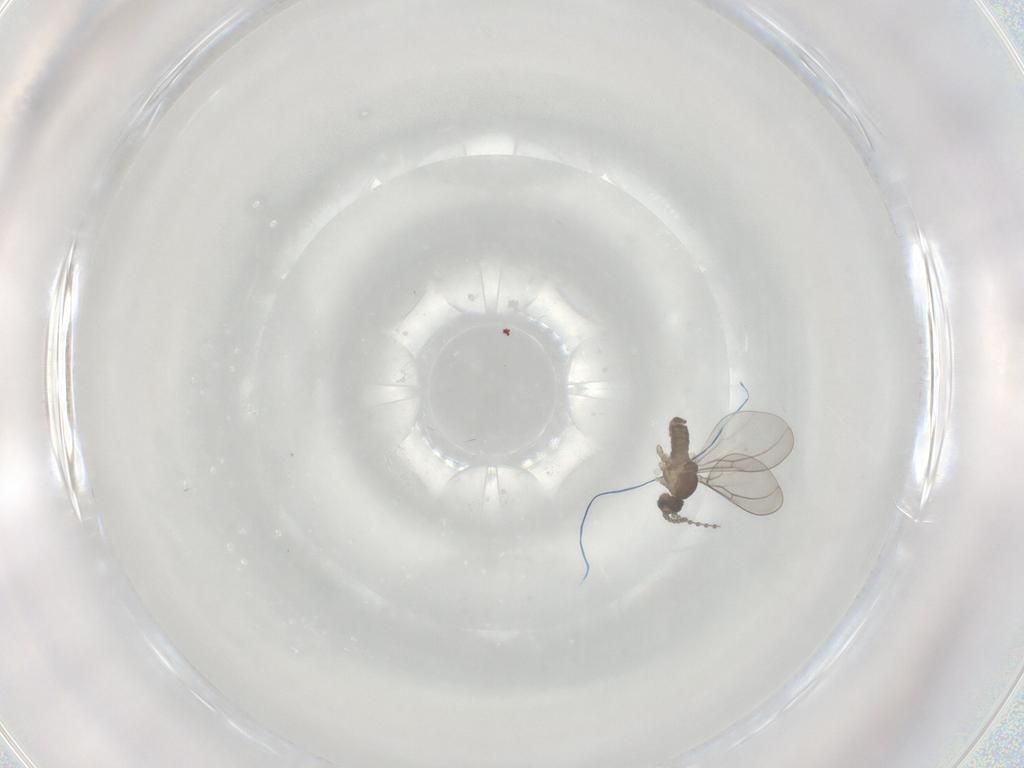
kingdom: Animalia
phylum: Arthropoda
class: Insecta
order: Diptera
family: Cecidomyiidae
